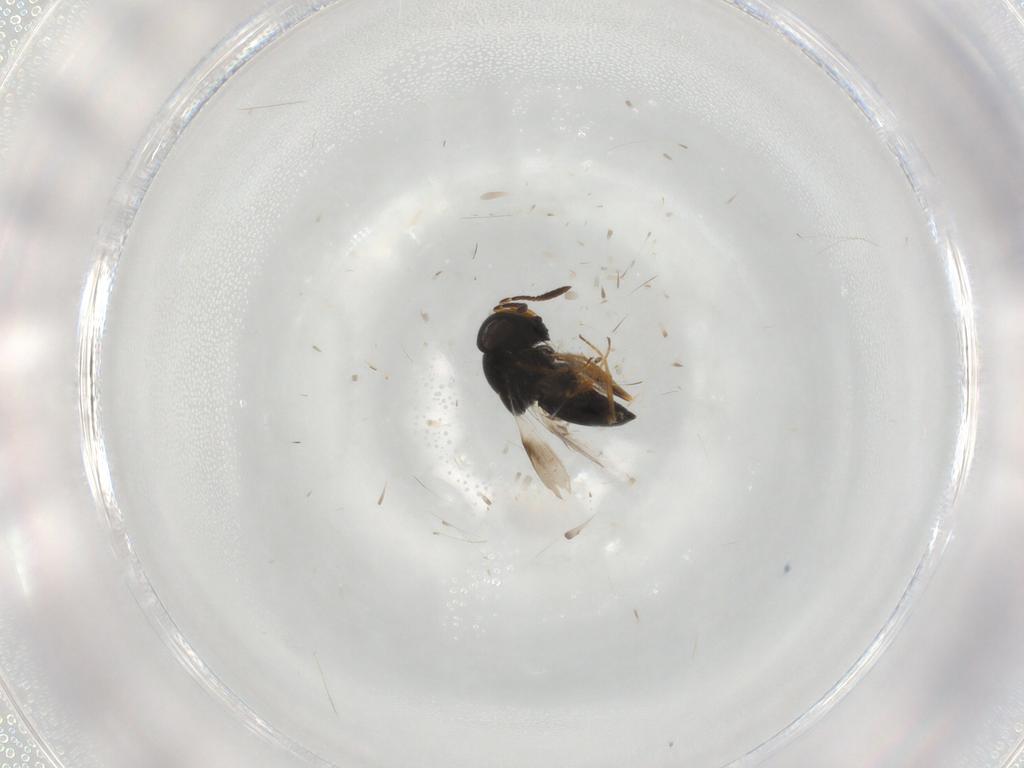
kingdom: Animalia
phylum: Arthropoda
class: Insecta
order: Hymenoptera
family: Scelionidae
